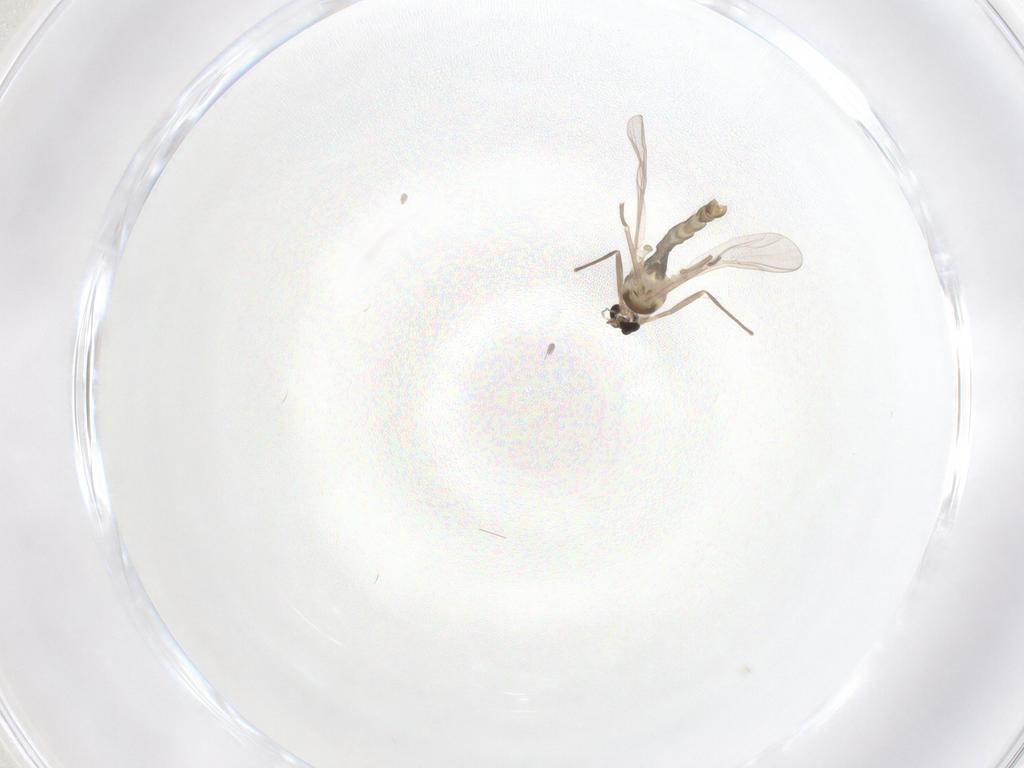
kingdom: Animalia
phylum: Arthropoda
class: Insecta
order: Diptera
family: Chironomidae
